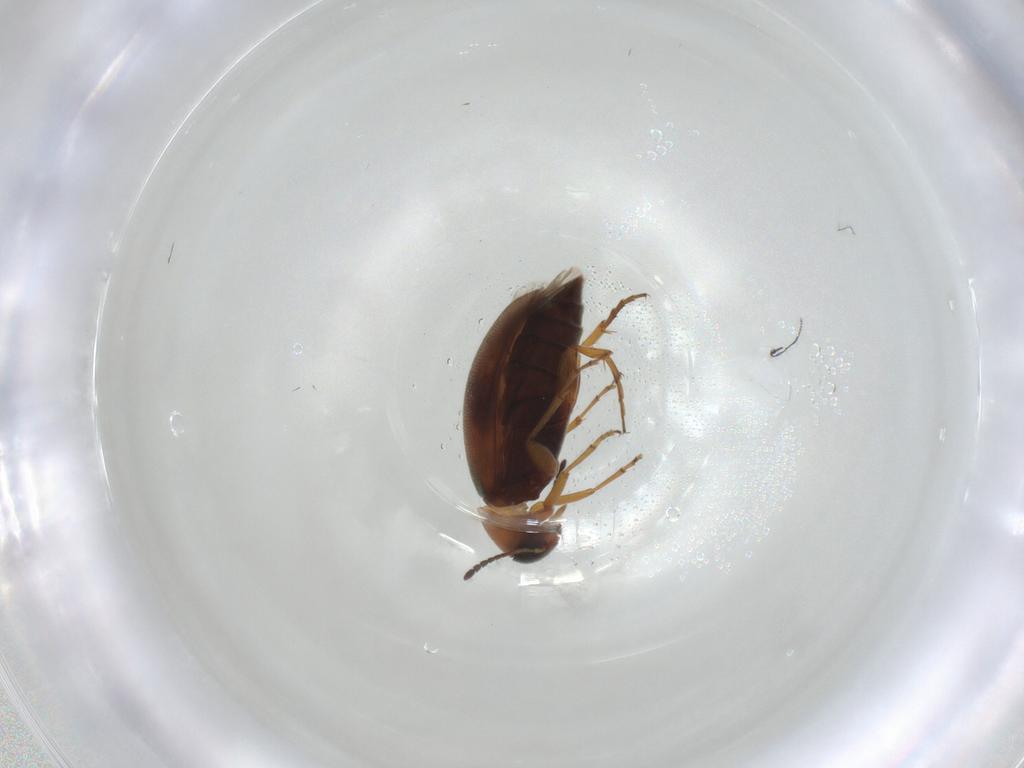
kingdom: Animalia
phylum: Arthropoda
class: Insecta
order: Coleoptera
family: Scraptiidae
